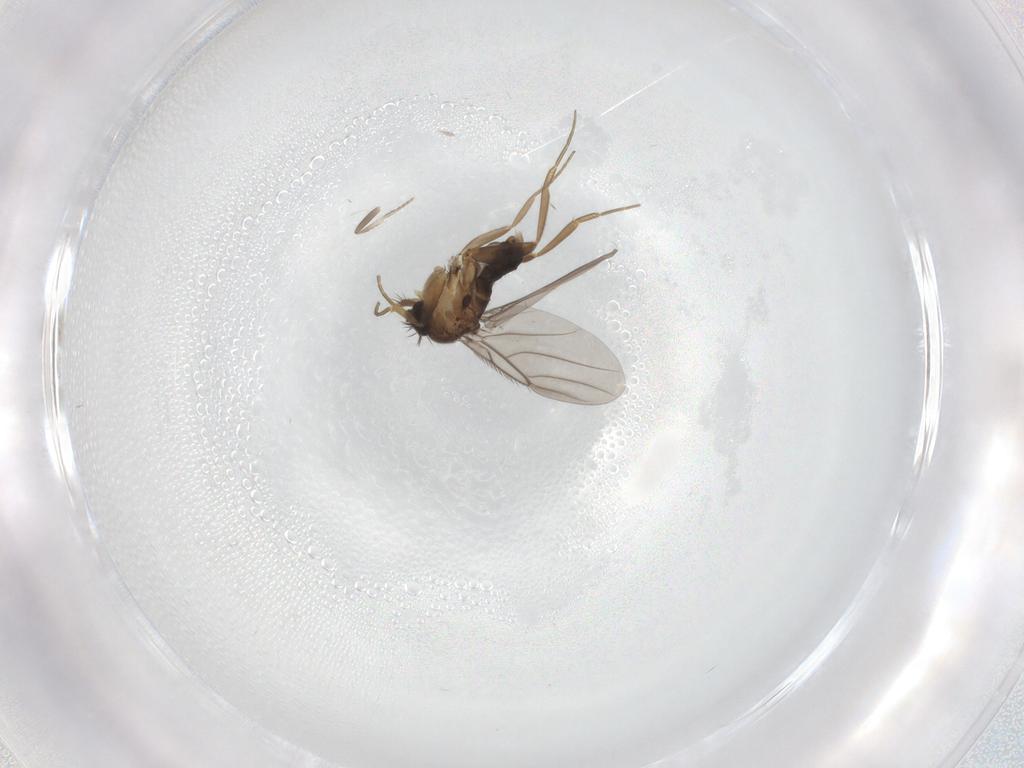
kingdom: Animalia
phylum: Arthropoda
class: Insecta
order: Diptera
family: Phoridae
